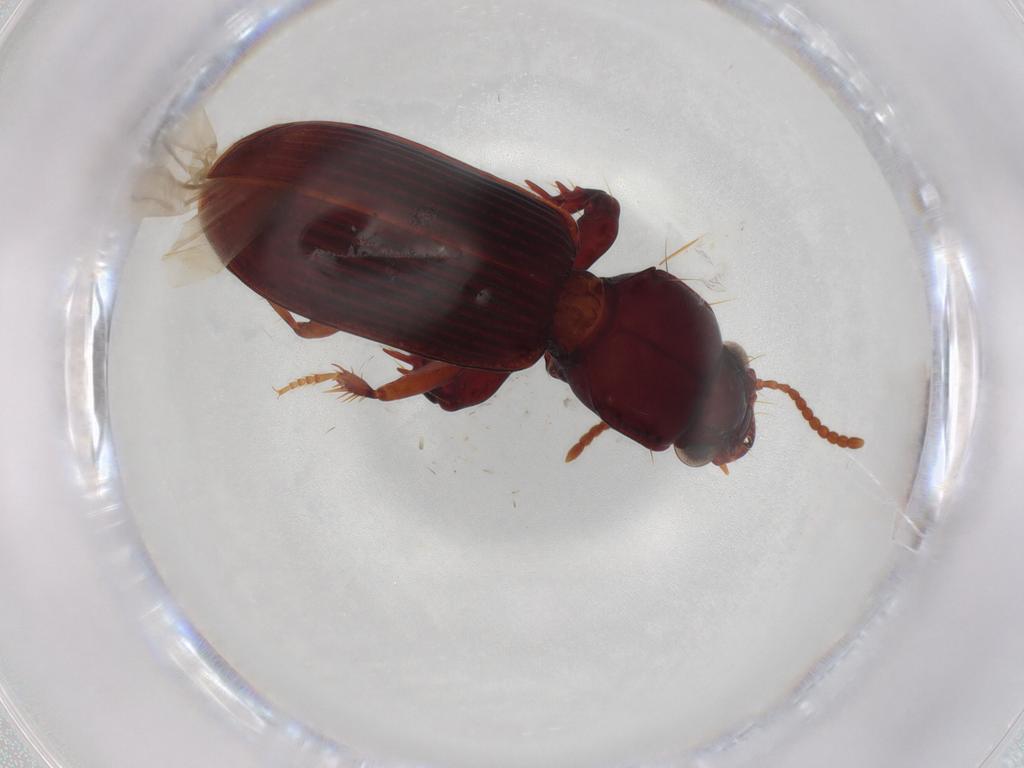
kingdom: Animalia
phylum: Arthropoda
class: Insecta
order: Coleoptera
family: Carabidae
